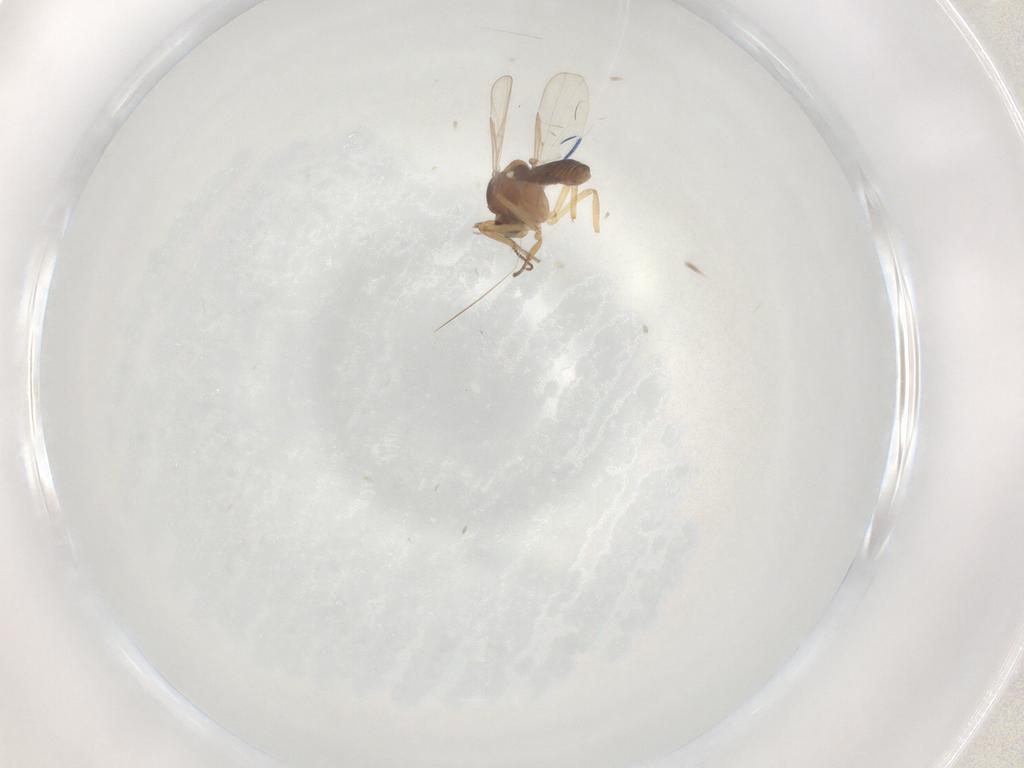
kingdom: Animalia
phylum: Arthropoda
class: Insecta
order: Diptera
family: Ceratopogonidae
